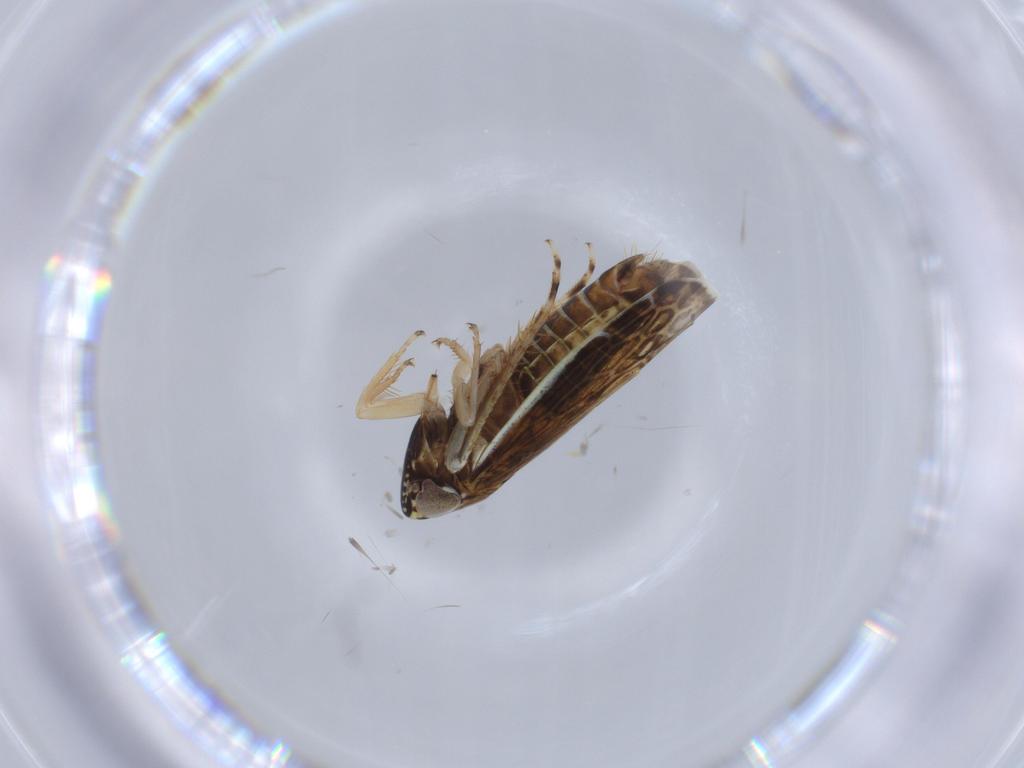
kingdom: Animalia
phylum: Arthropoda
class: Insecta
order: Hemiptera
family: Cicadellidae
